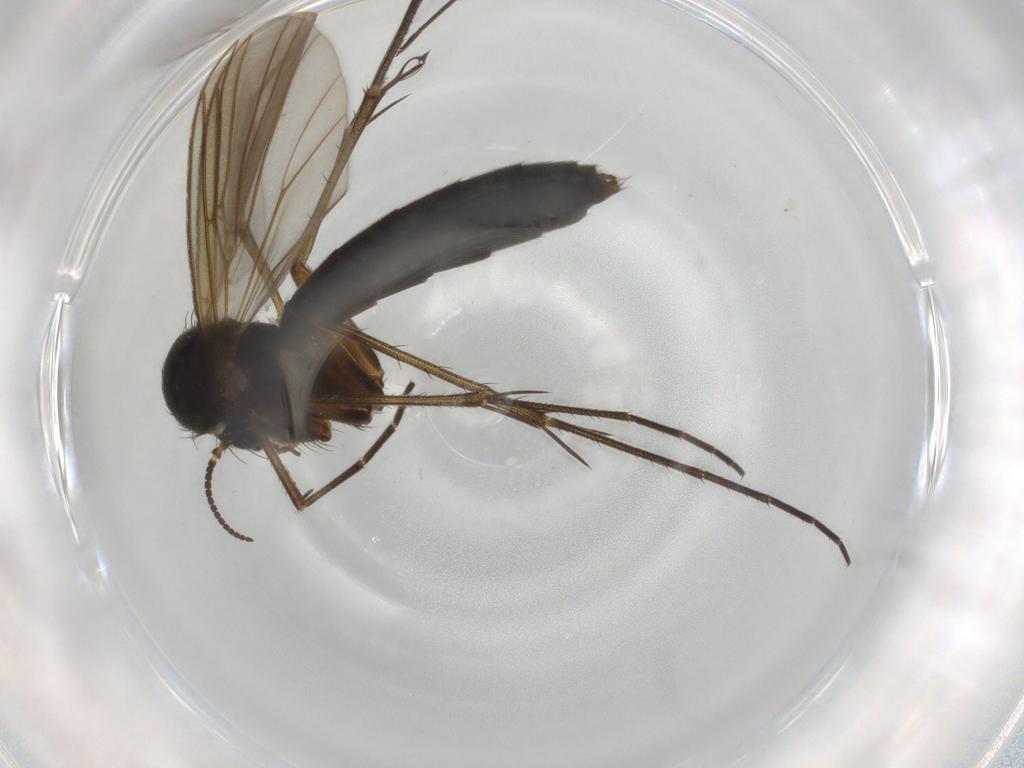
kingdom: Animalia
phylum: Arthropoda
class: Insecta
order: Diptera
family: Mycetophilidae
